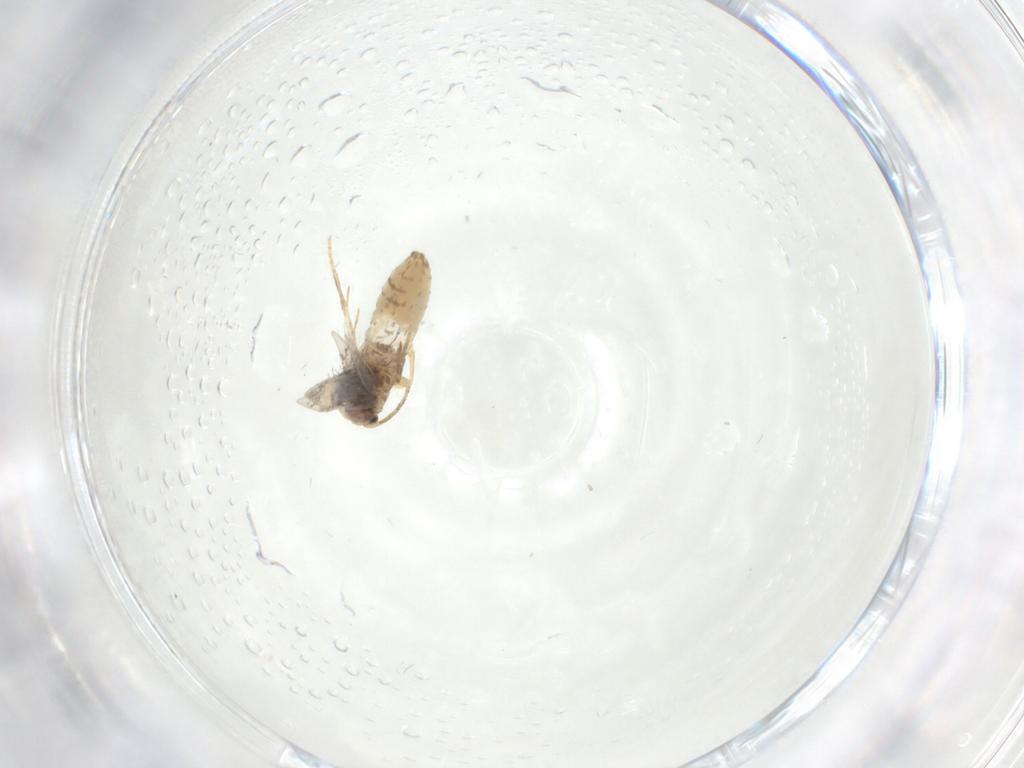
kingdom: Animalia
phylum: Arthropoda
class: Insecta
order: Lepidoptera
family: Nepticulidae
